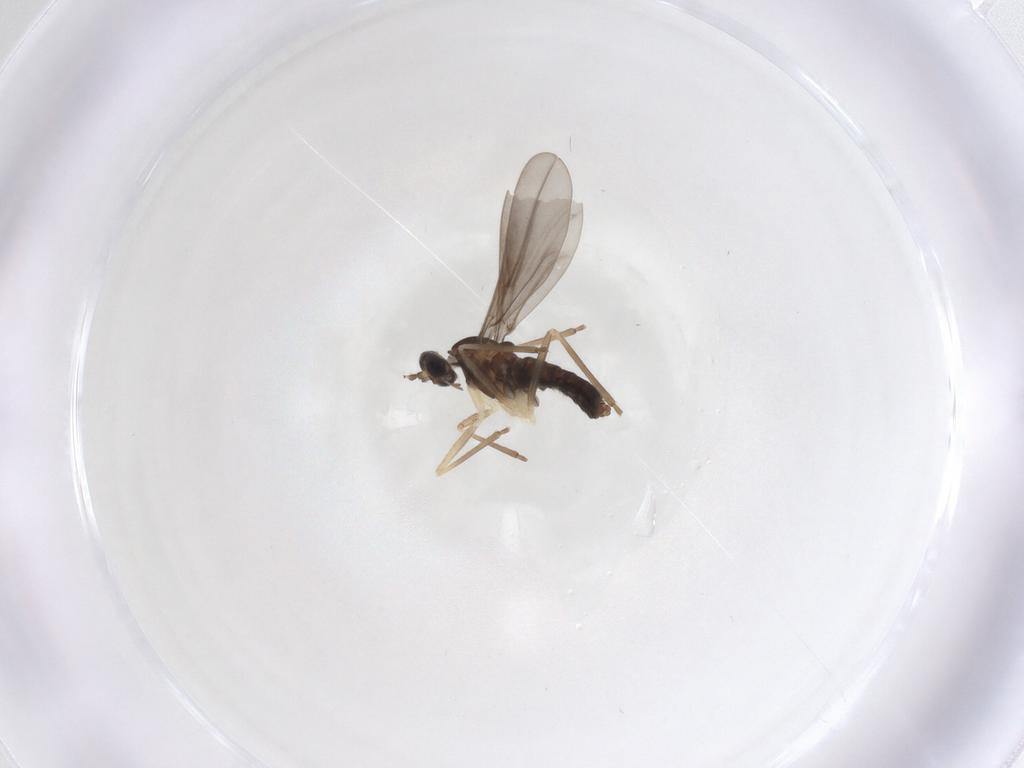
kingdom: Animalia
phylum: Arthropoda
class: Insecta
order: Diptera
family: Cecidomyiidae
